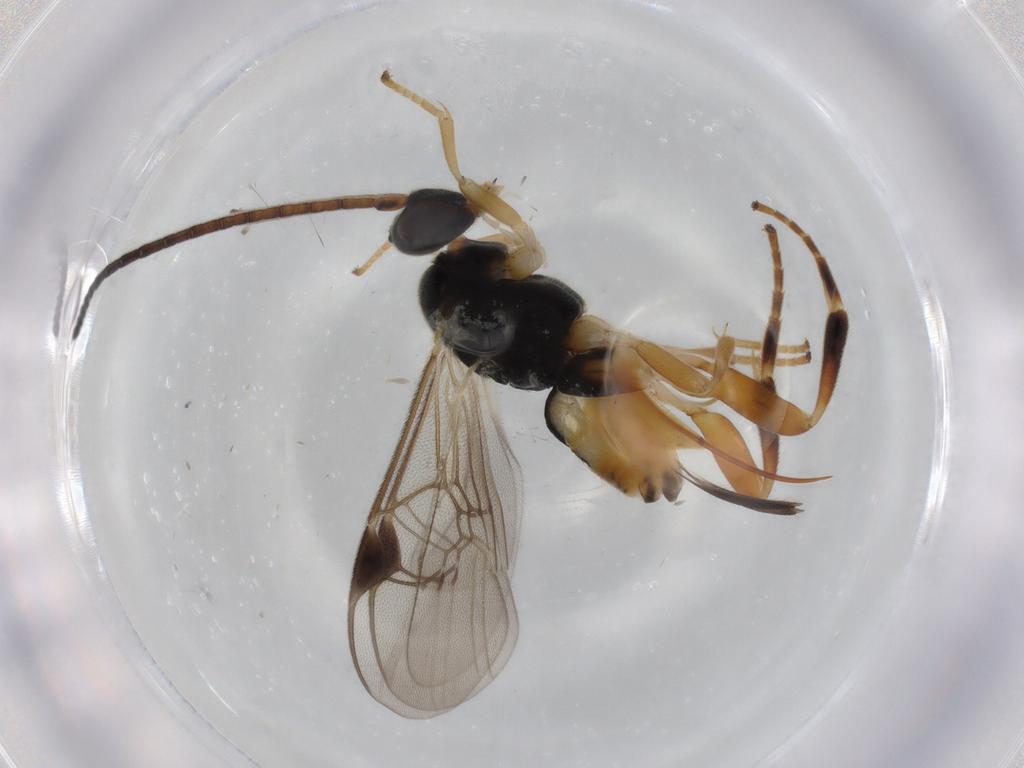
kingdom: Animalia
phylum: Arthropoda
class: Insecta
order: Hymenoptera
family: Braconidae
